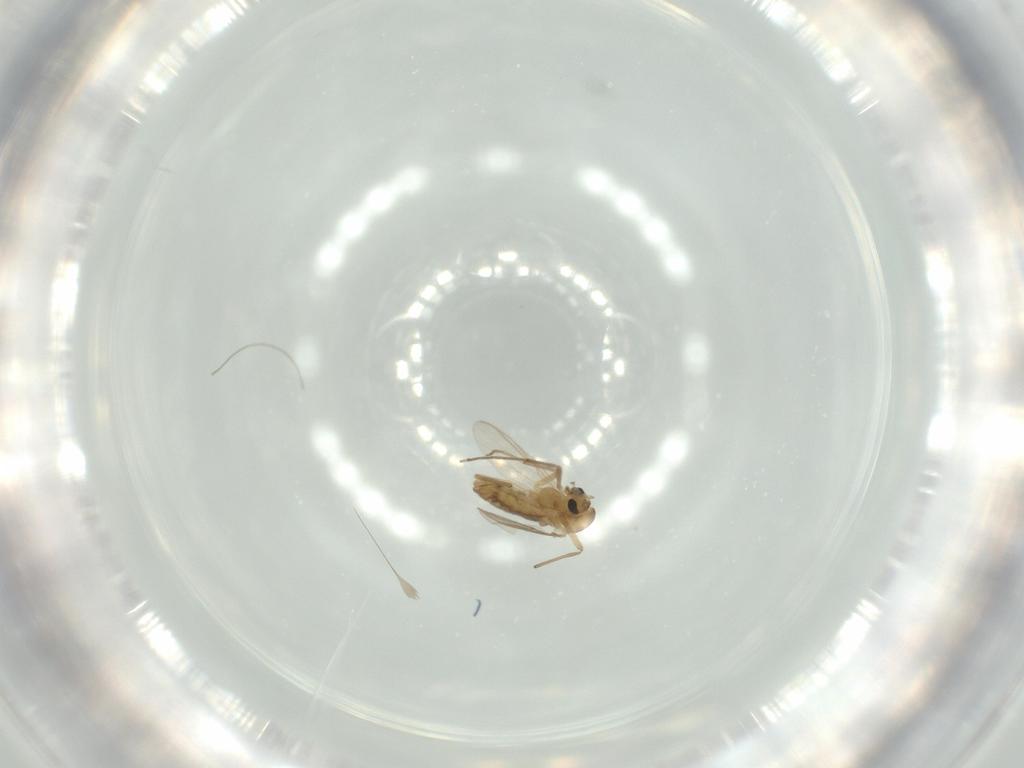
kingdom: Animalia
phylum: Arthropoda
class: Insecta
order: Diptera
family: Chironomidae
